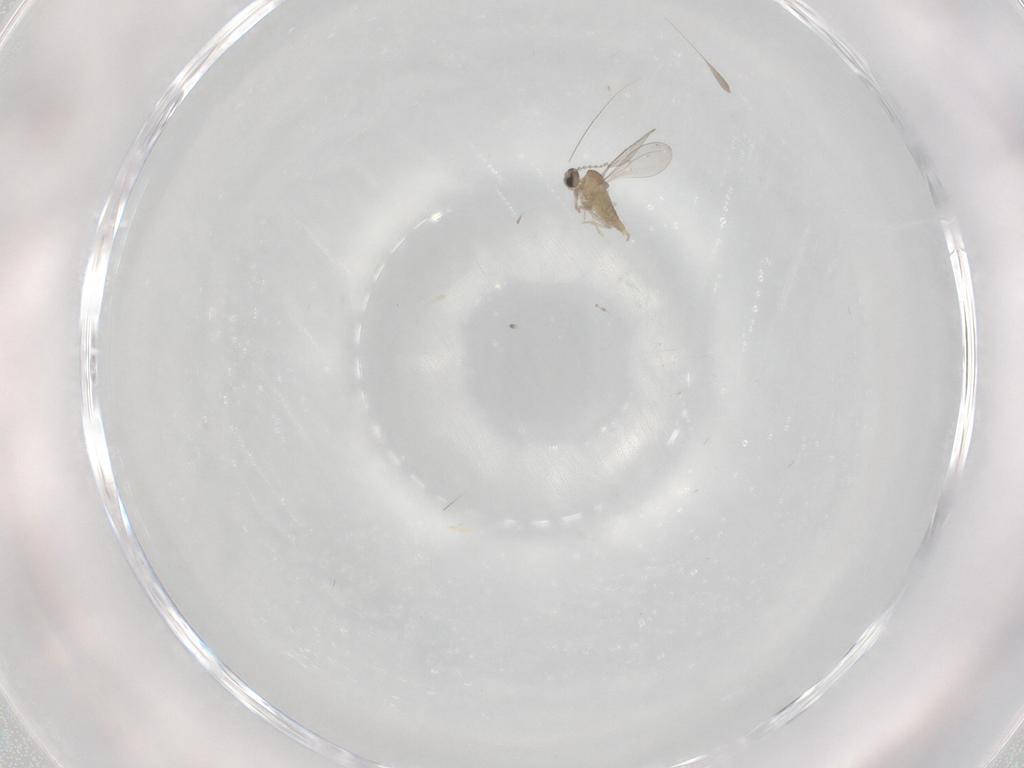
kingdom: Animalia
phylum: Arthropoda
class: Insecta
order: Diptera
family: Cecidomyiidae
